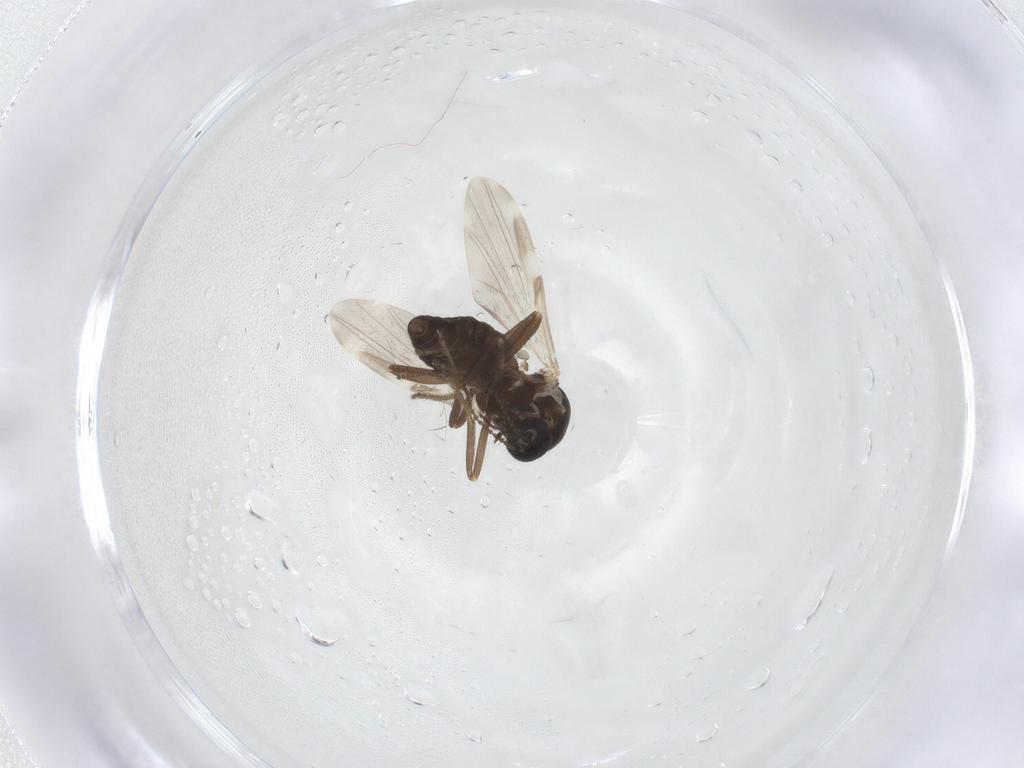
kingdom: Animalia
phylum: Arthropoda
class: Insecta
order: Diptera
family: Ceratopogonidae
